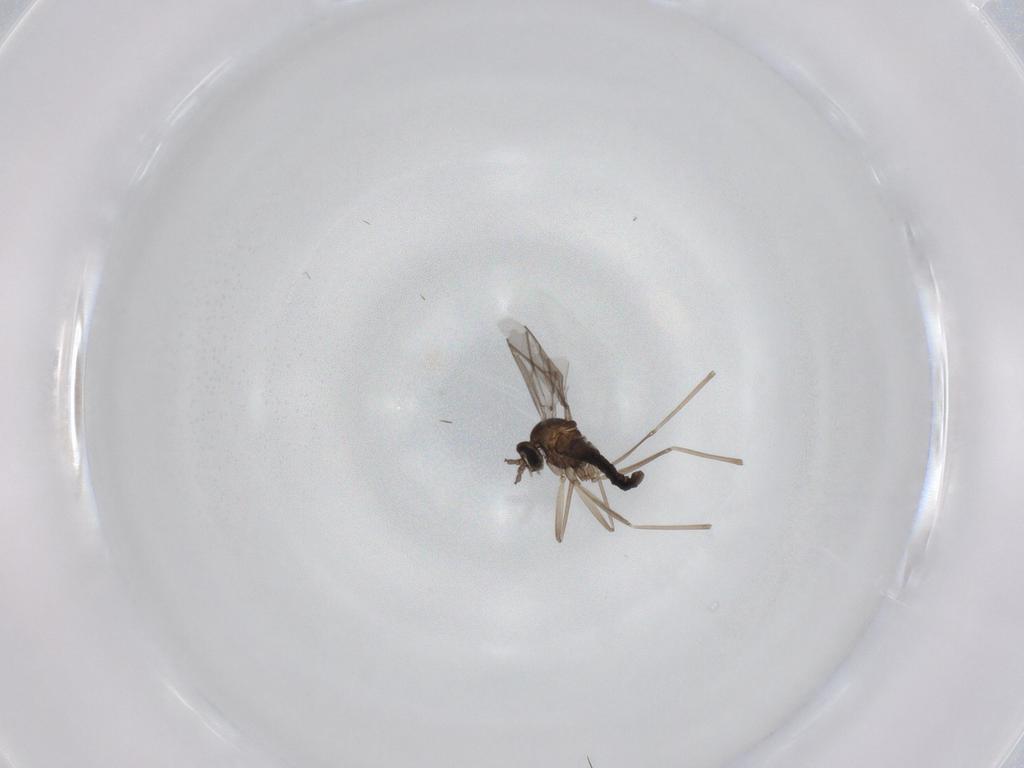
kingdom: Animalia
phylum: Arthropoda
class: Insecta
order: Diptera
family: Cecidomyiidae
